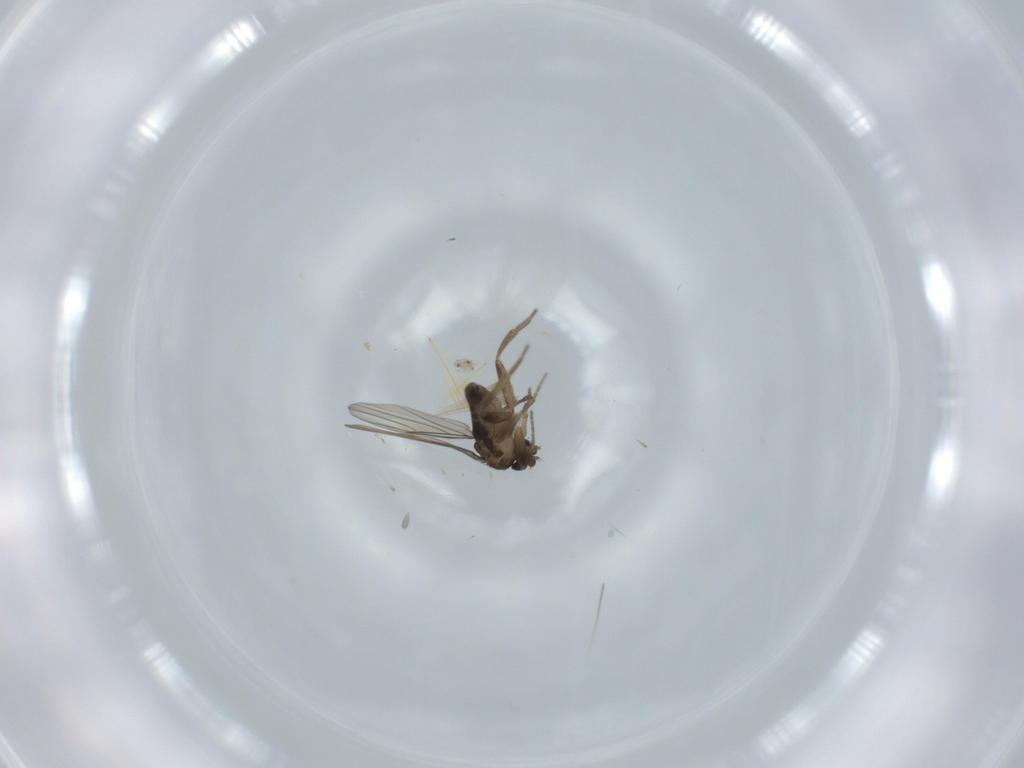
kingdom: Animalia
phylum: Arthropoda
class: Insecta
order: Diptera
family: Phoridae
